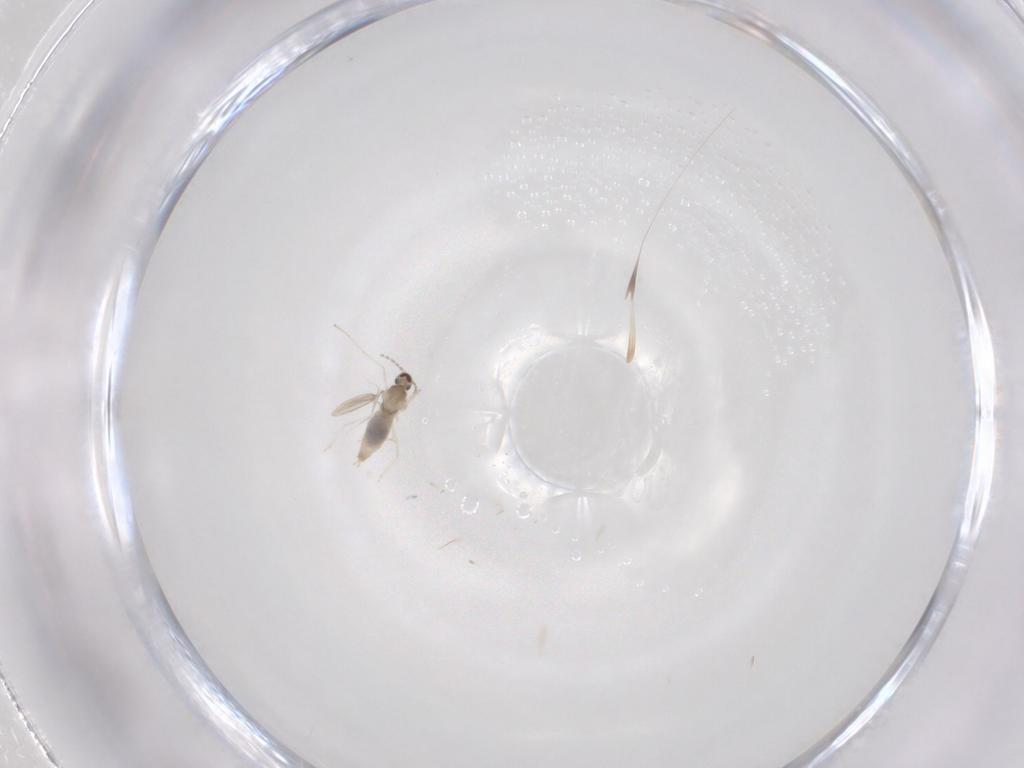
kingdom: Animalia
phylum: Arthropoda
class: Insecta
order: Diptera
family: Cecidomyiidae
